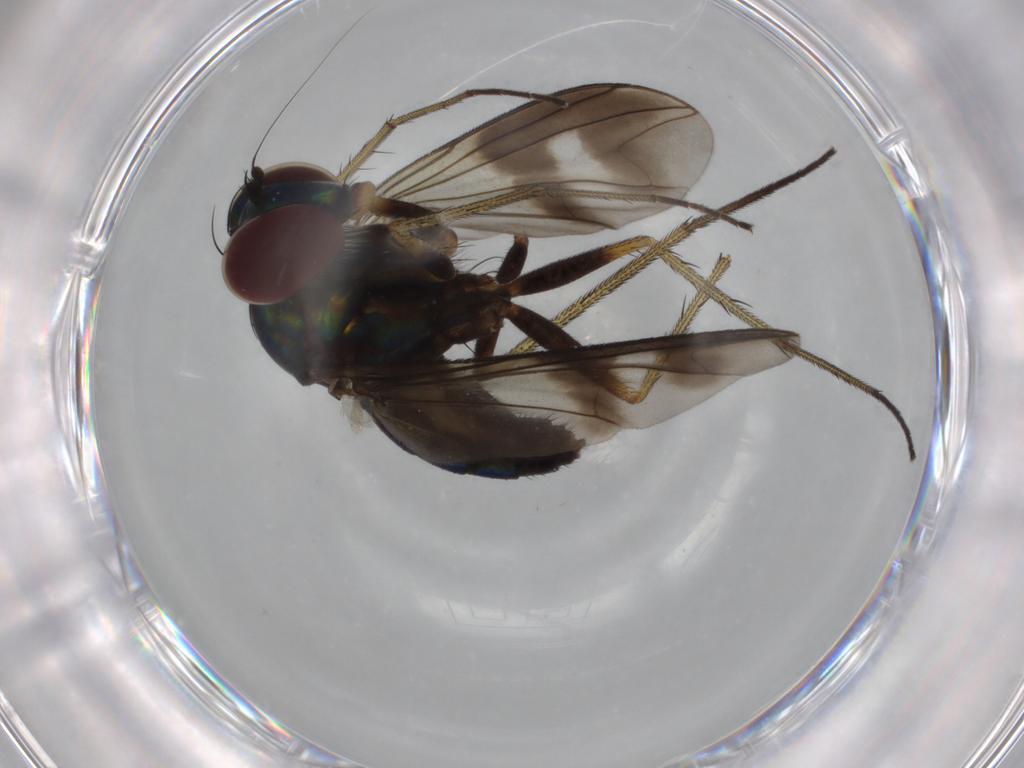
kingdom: Animalia
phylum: Arthropoda
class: Insecta
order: Diptera
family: Dolichopodidae
